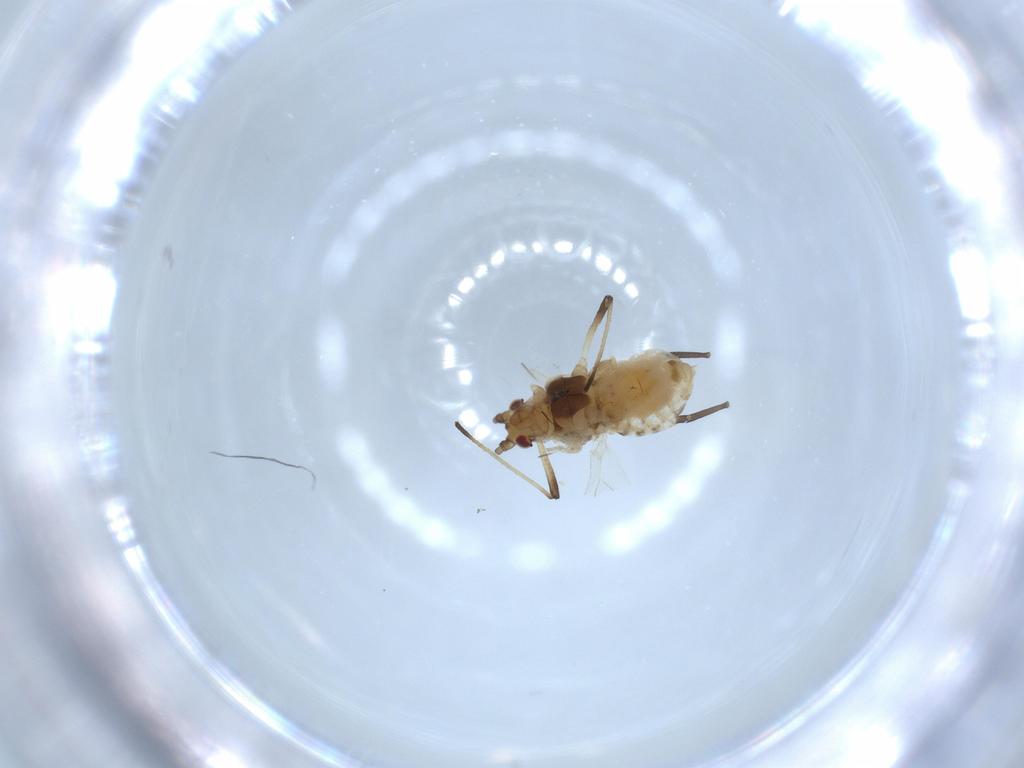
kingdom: Animalia
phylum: Arthropoda
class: Insecta
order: Hemiptera
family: Aphididae
